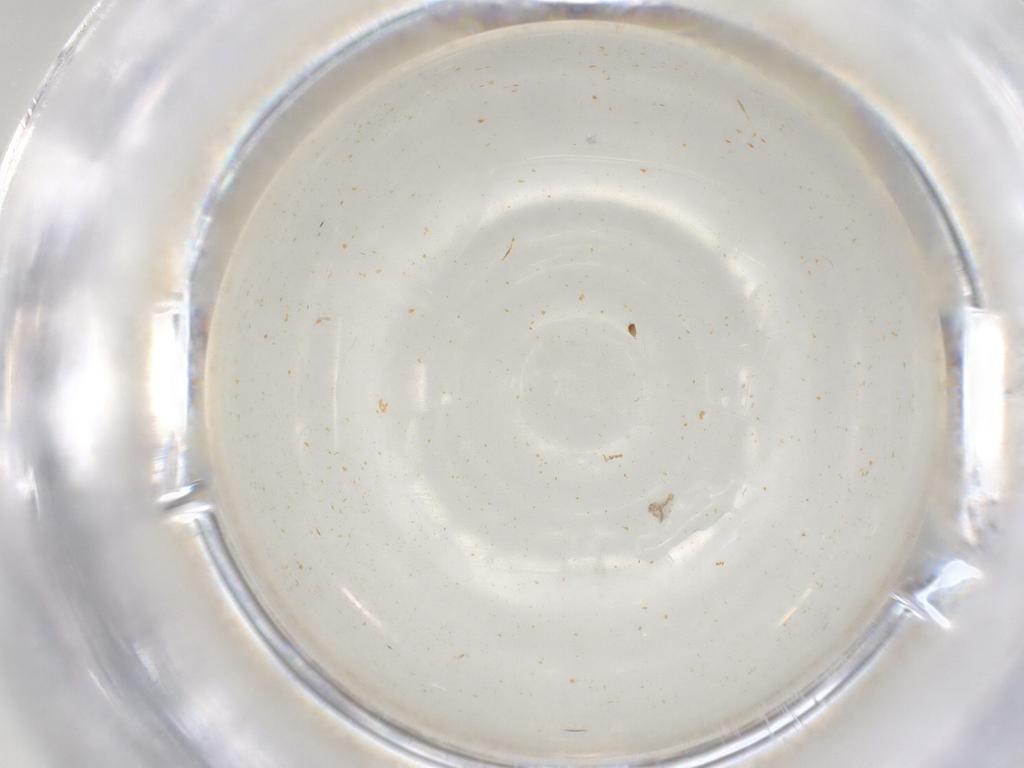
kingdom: Animalia
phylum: Arthropoda
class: Insecta
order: Diptera
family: Sciaridae
